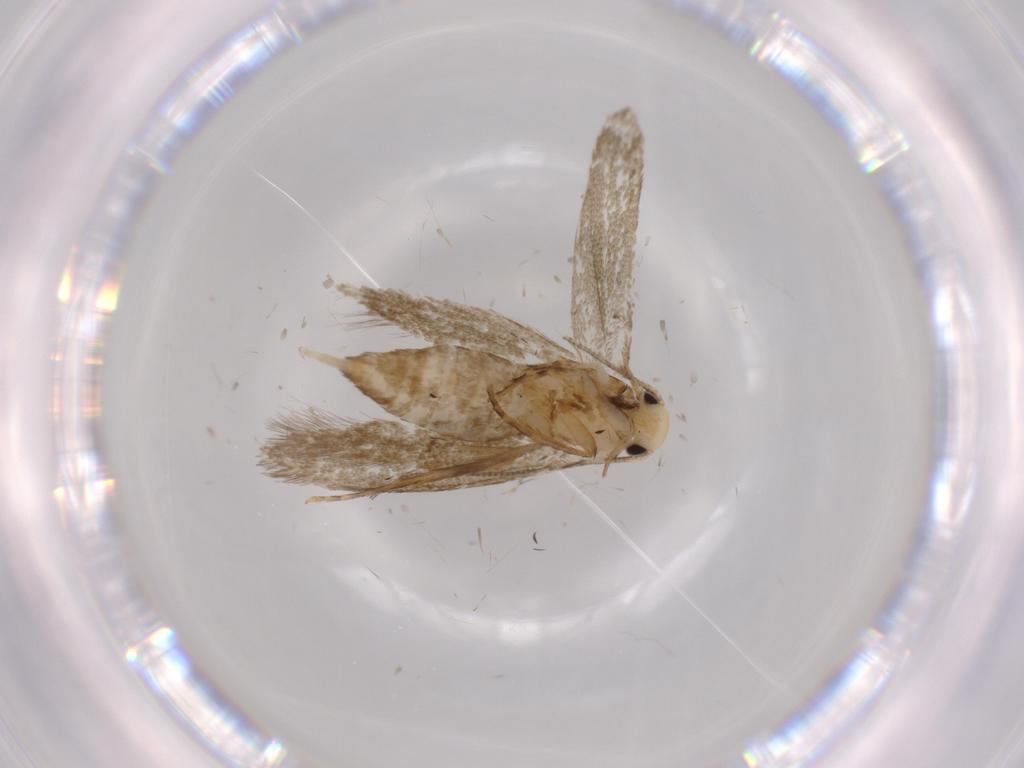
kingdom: Animalia
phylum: Arthropoda
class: Insecta
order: Lepidoptera
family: Tineidae
